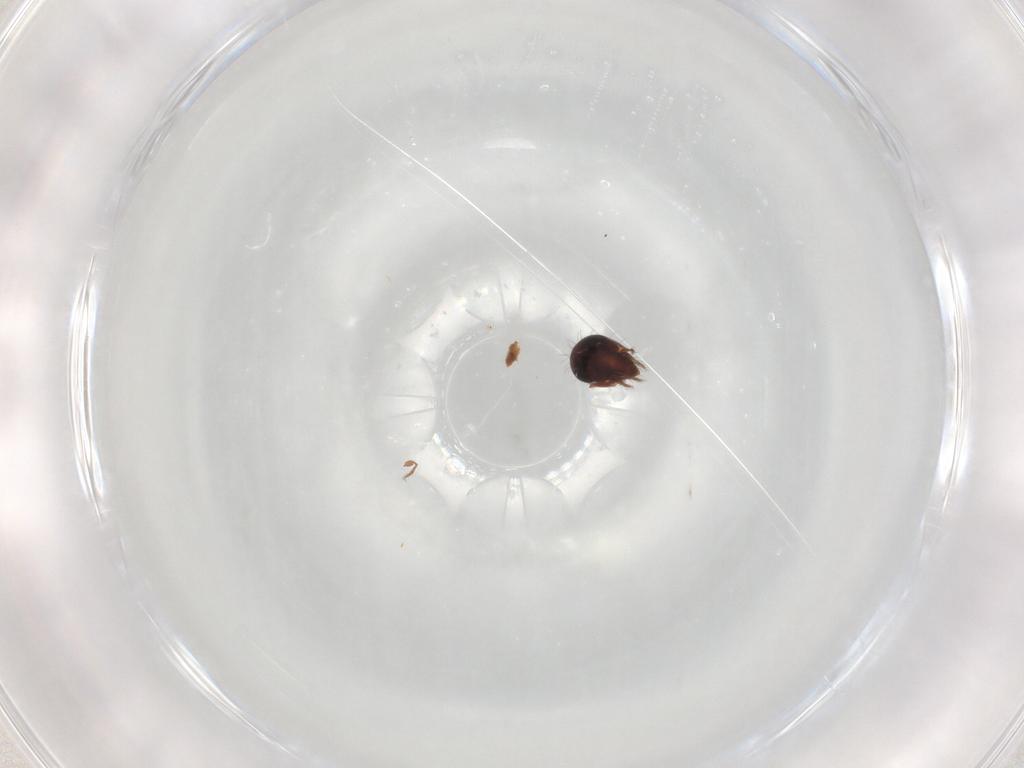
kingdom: Animalia
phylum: Arthropoda
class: Arachnida
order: Sarcoptiformes
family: Humerobatidae
